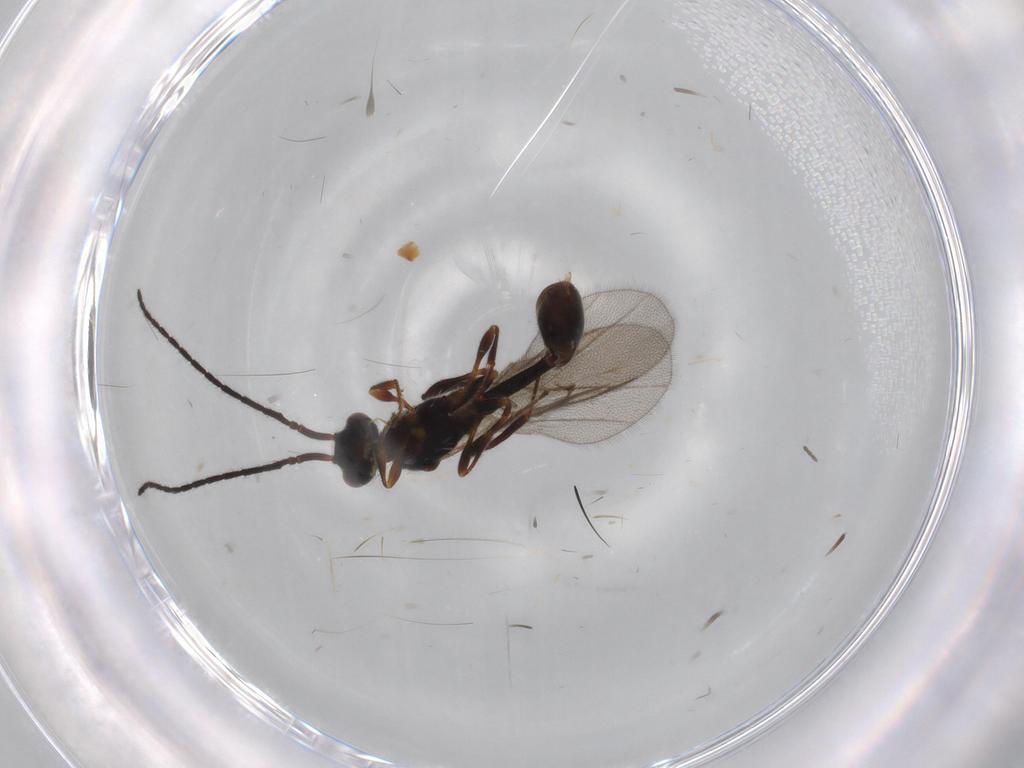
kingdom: Animalia
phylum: Arthropoda
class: Insecta
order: Hymenoptera
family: Diapriidae
